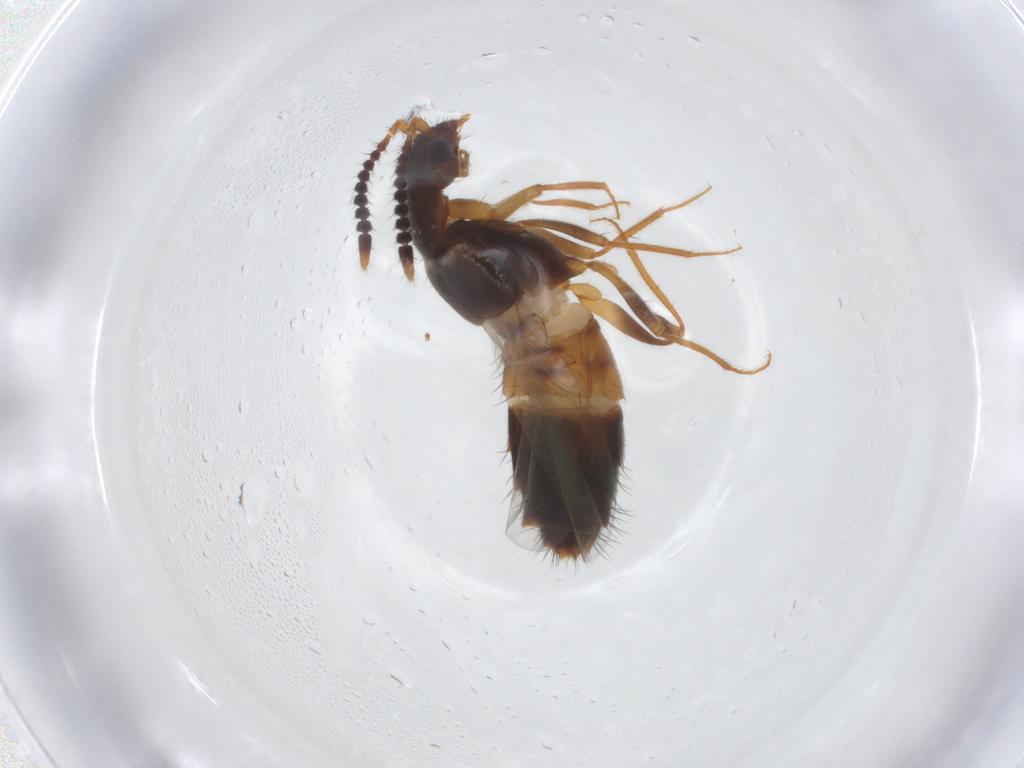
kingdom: Animalia
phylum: Arthropoda
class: Insecta
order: Coleoptera
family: Staphylinidae
